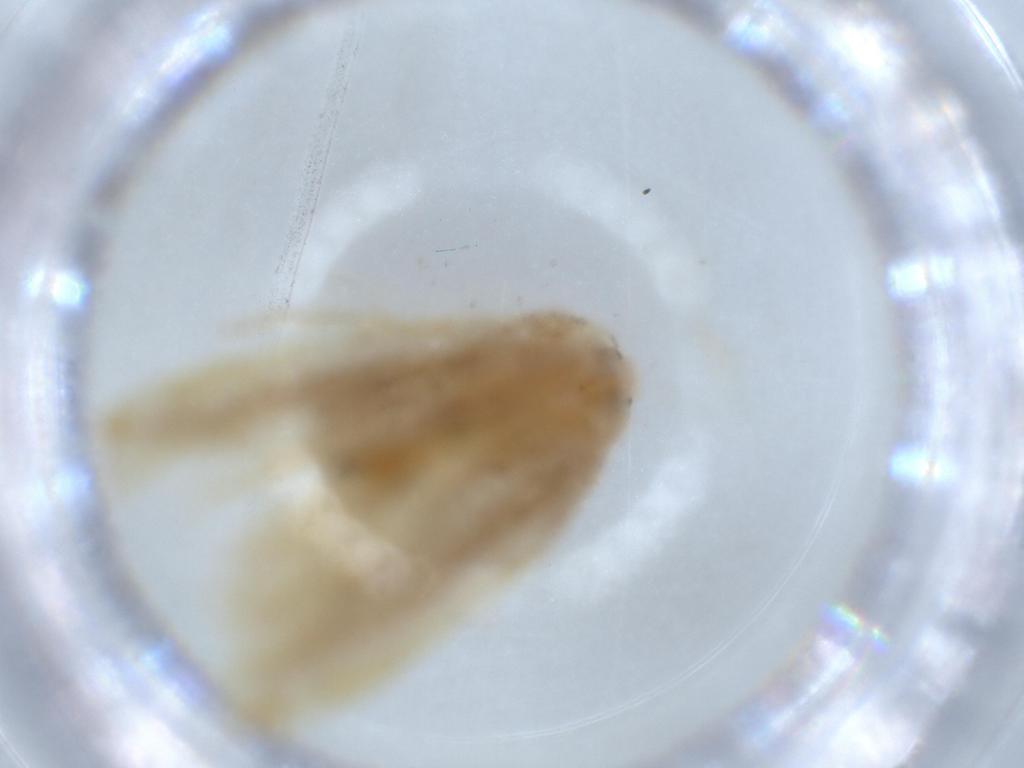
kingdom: Animalia
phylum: Arthropoda
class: Insecta
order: Lepidoptera
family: Cosmopterigidae
